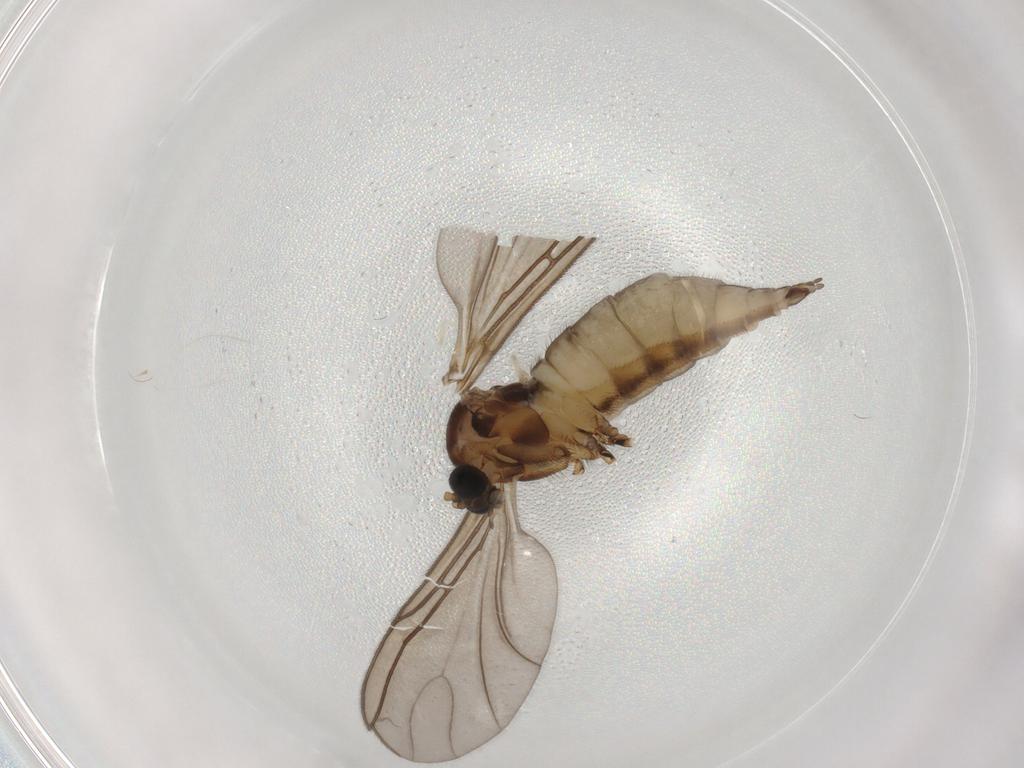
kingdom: Animalia
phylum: Arthropoda
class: Insecta
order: Diptera
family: Sciaridae
